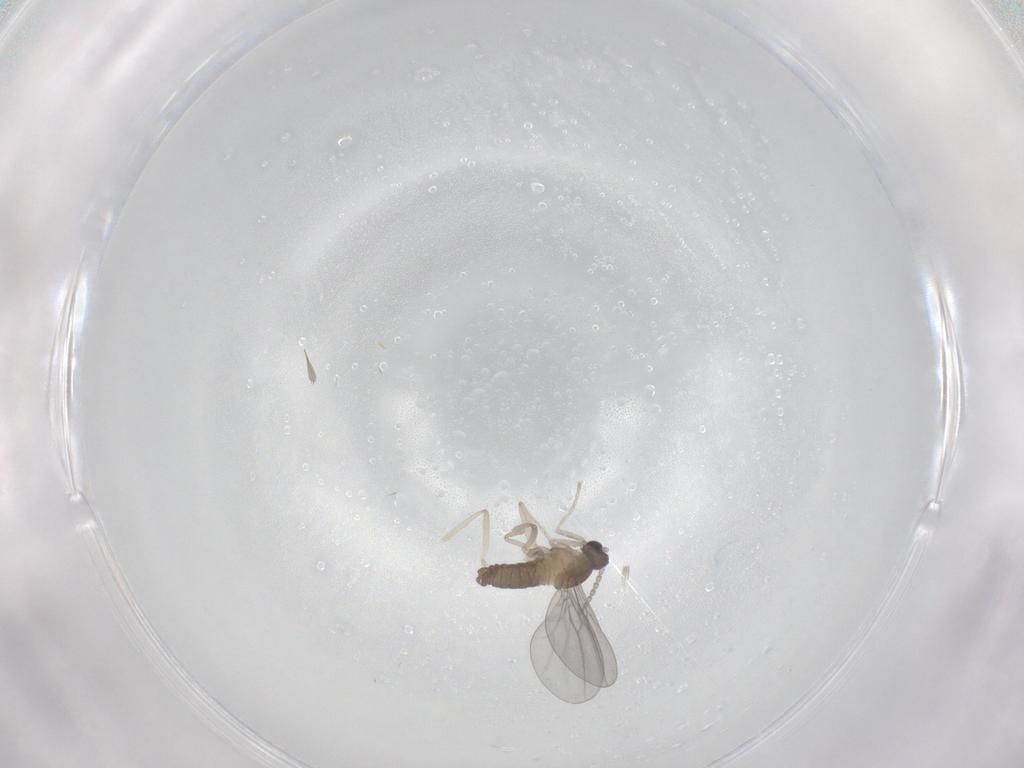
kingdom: Animalia
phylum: Arthropoda
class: Insecta
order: Diptera
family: Cecidomyiidae
